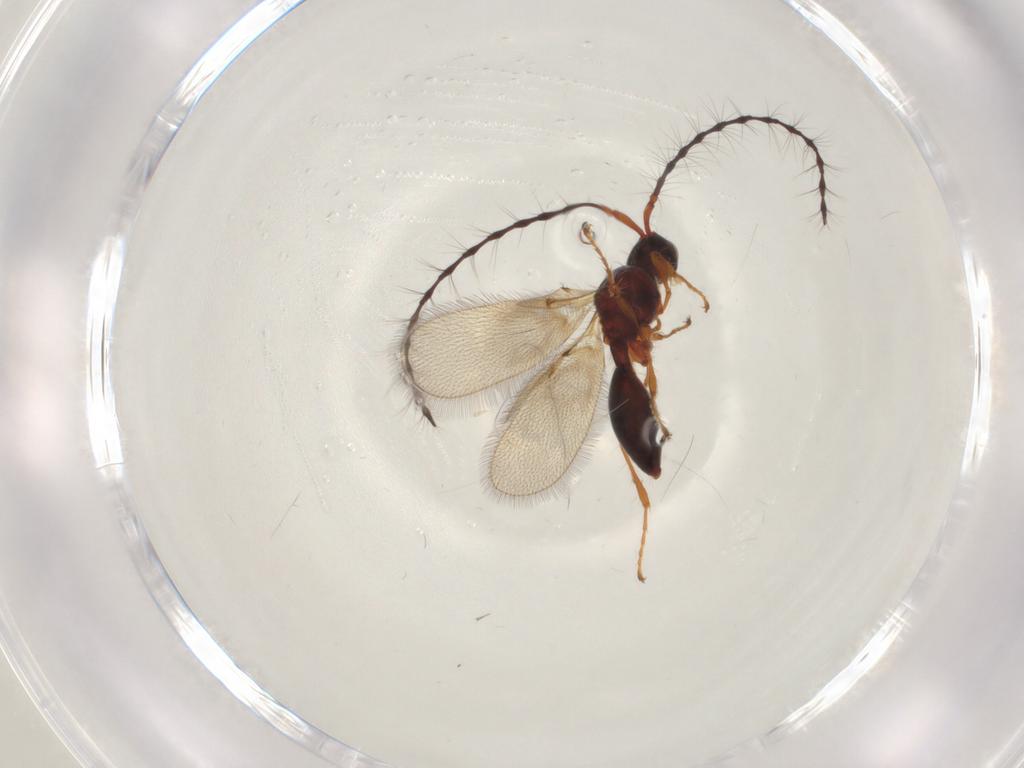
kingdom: Animalia
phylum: Arthropoda
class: Insecta
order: Hymenoptera
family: Diapriidae
